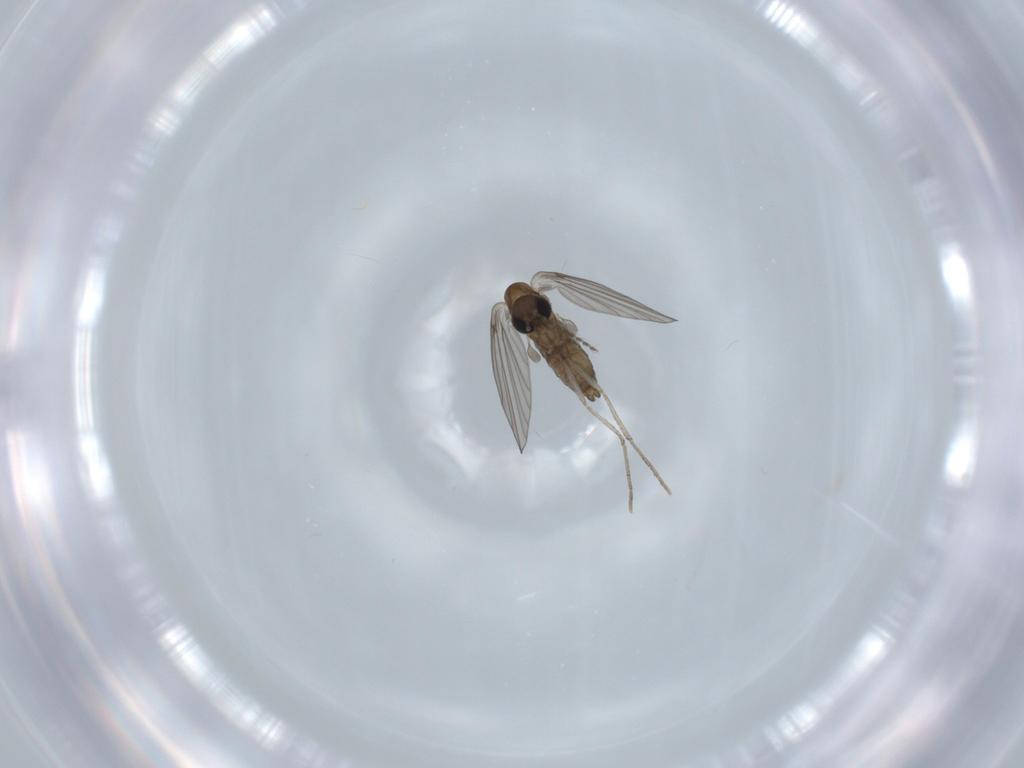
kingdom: Animalia
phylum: Arthropoda
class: Insecta
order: Diptera
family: Psychodidae
